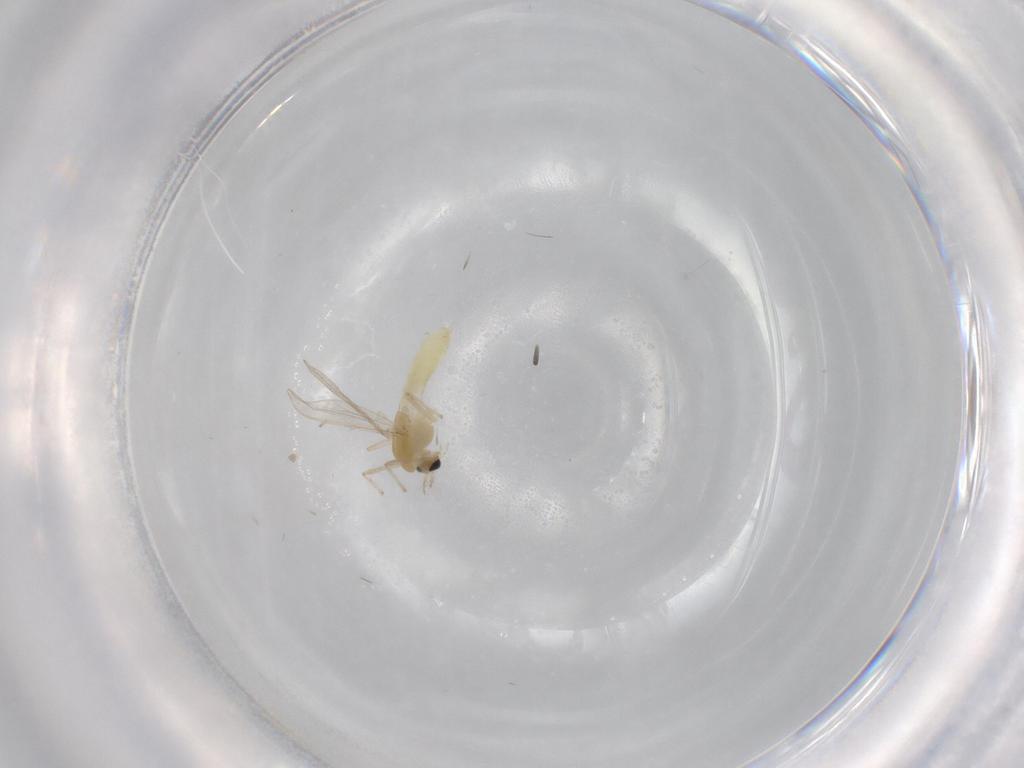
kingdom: Animalia
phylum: Arthropoda
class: Insecta
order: Diptera
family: Chironomidae
